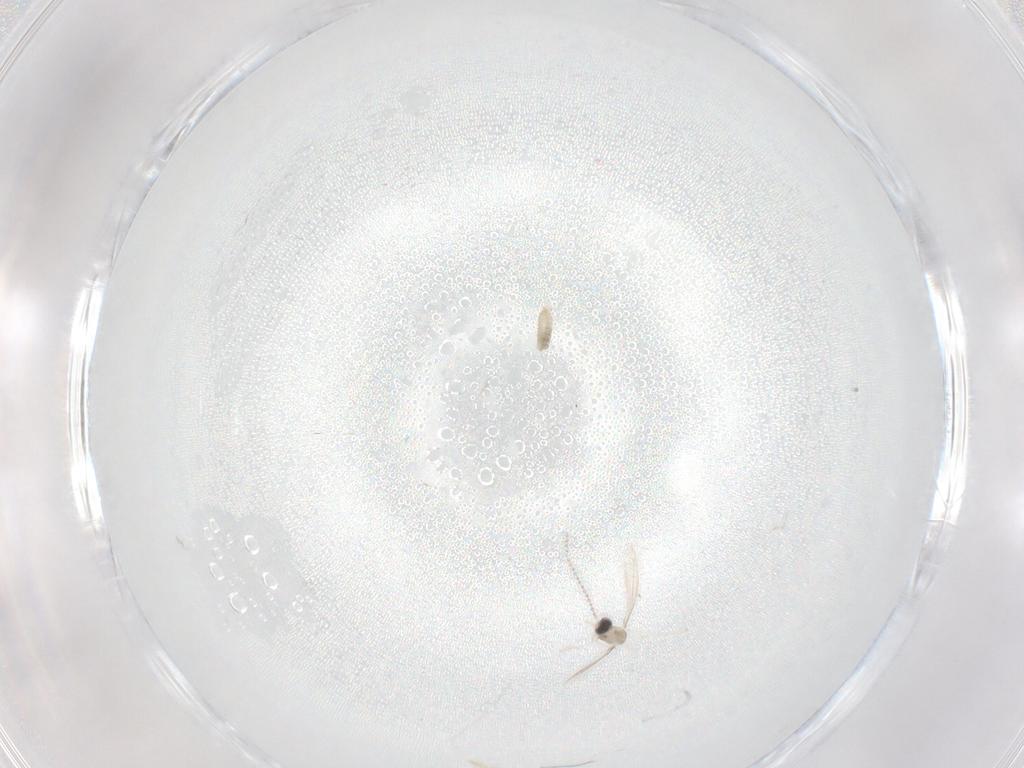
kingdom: Animalia
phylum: Arthropoda
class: Insecta
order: Diptera
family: Cecidomyiidae
